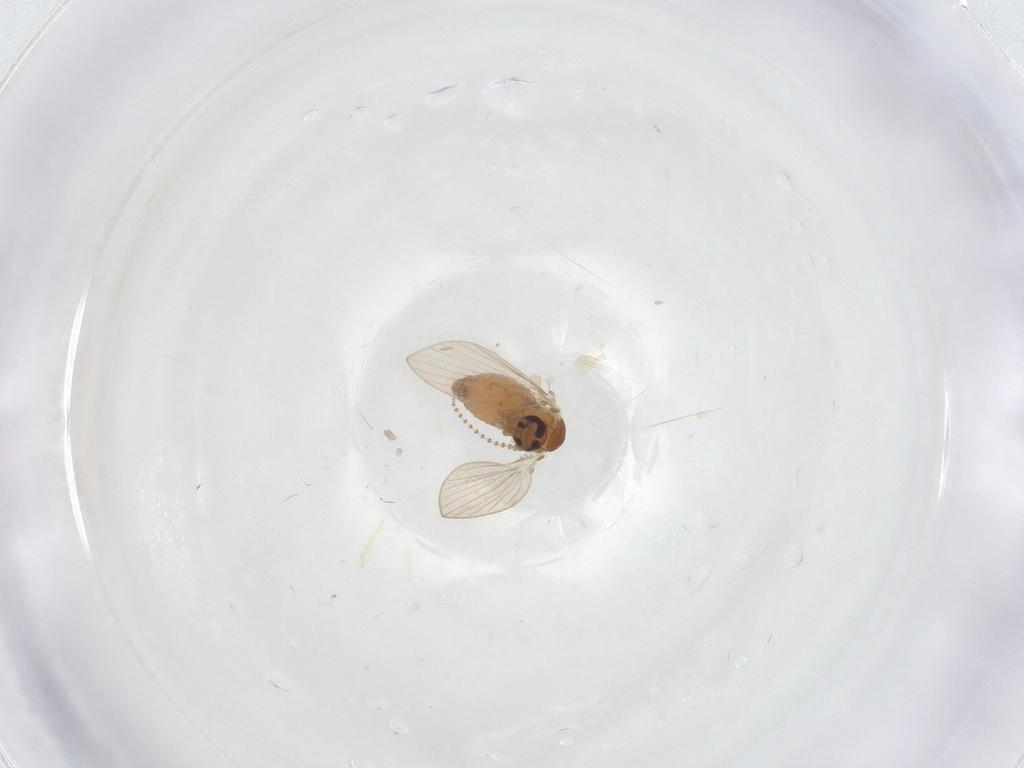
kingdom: Animalia
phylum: Arthropoda
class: Insecta
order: Diptera
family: Psychodidae
